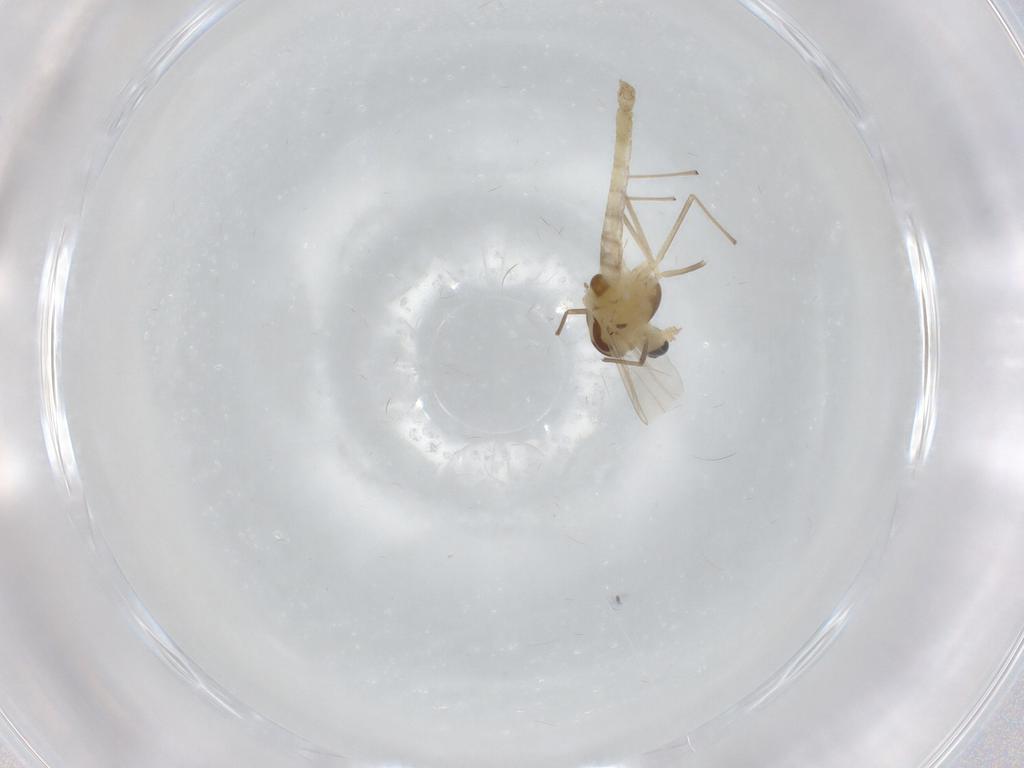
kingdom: Animalia
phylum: Arthropoda
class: Insecta
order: Diptera
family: Chironomidae
